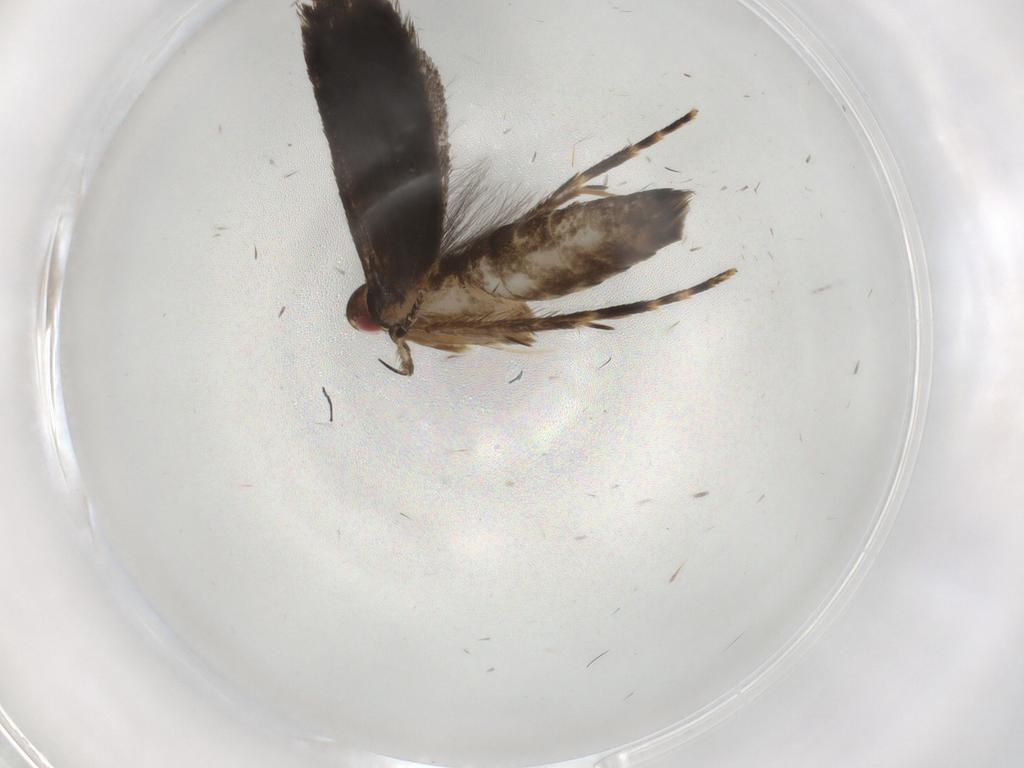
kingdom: Animalia
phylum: Arthropoda
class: Insecta
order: Lepidoptera
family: Gelechiidae
